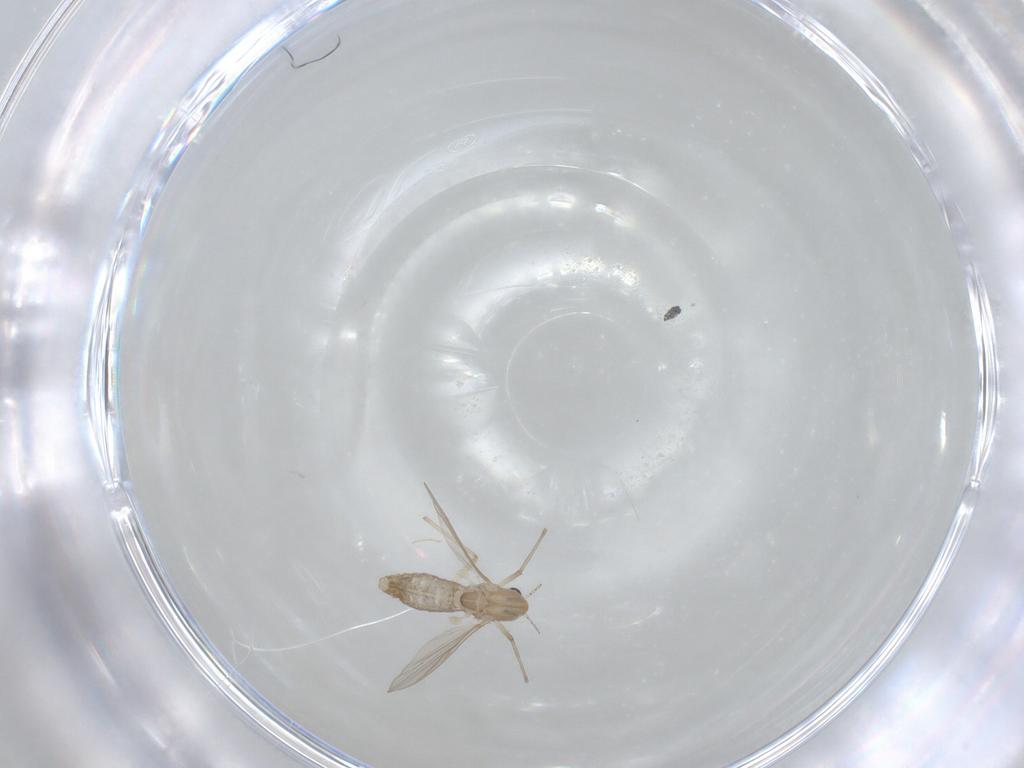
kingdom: Animalia
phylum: Arthropoda
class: Insecta
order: Diptera
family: Chironomidae
